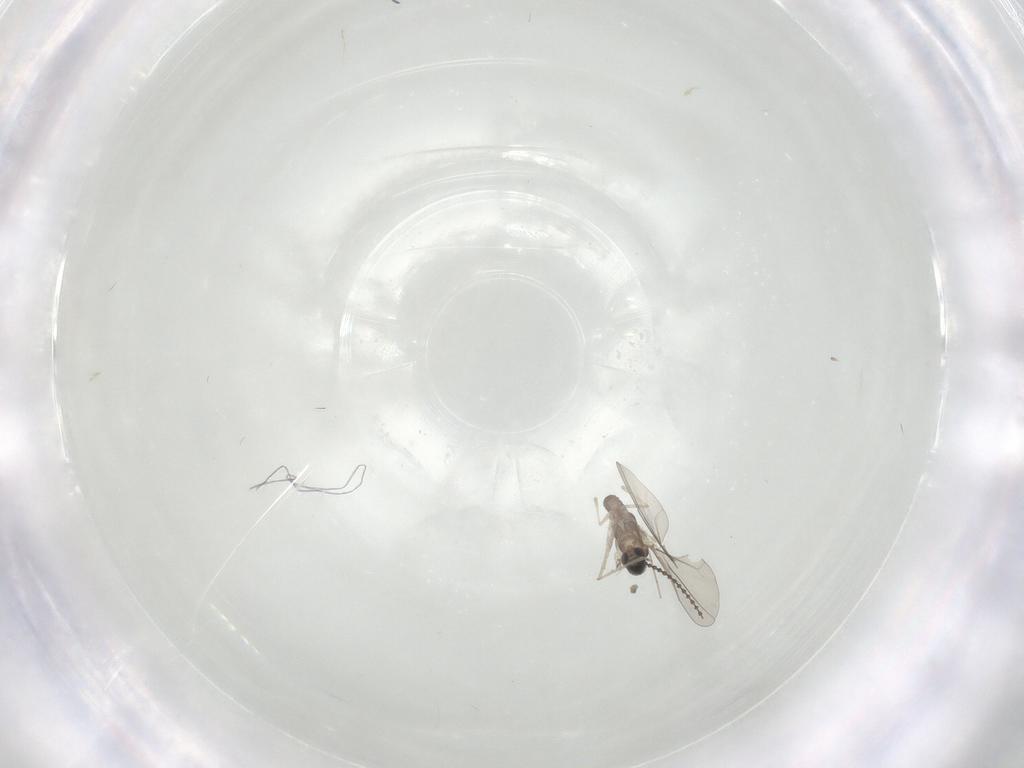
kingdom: Animalia
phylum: Arthropoda
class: Insecta
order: Diptera
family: Cecidomyiidae
